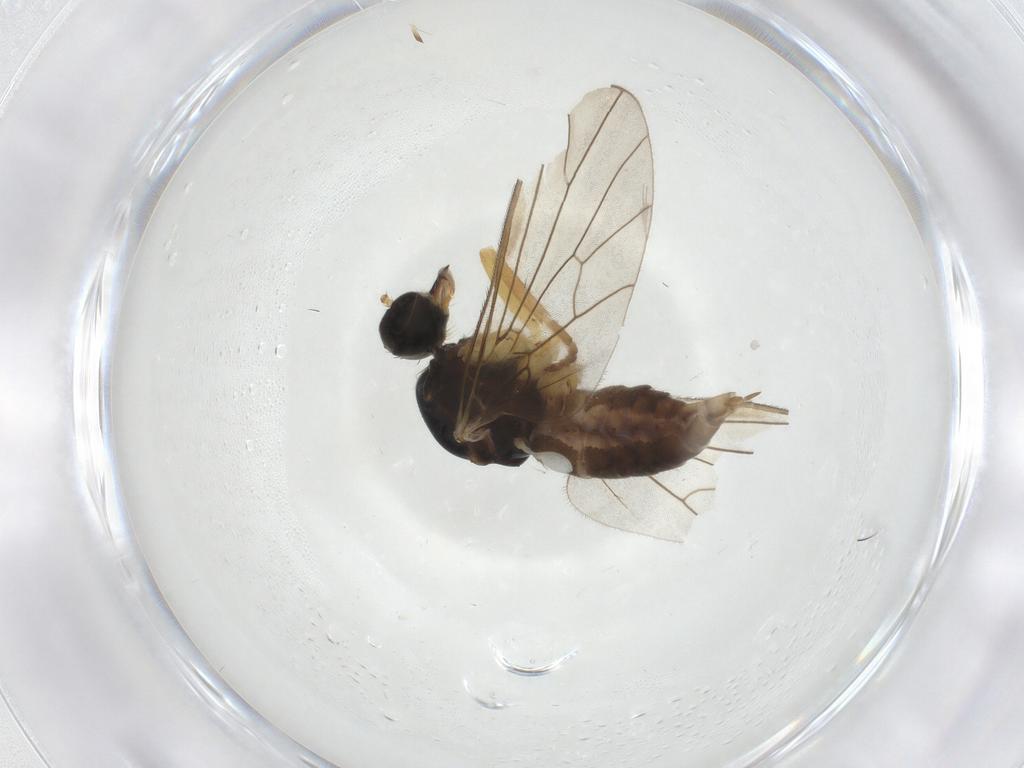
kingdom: Animalia
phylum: Arthropoda
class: Insecta
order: Diptera
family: Empididae
